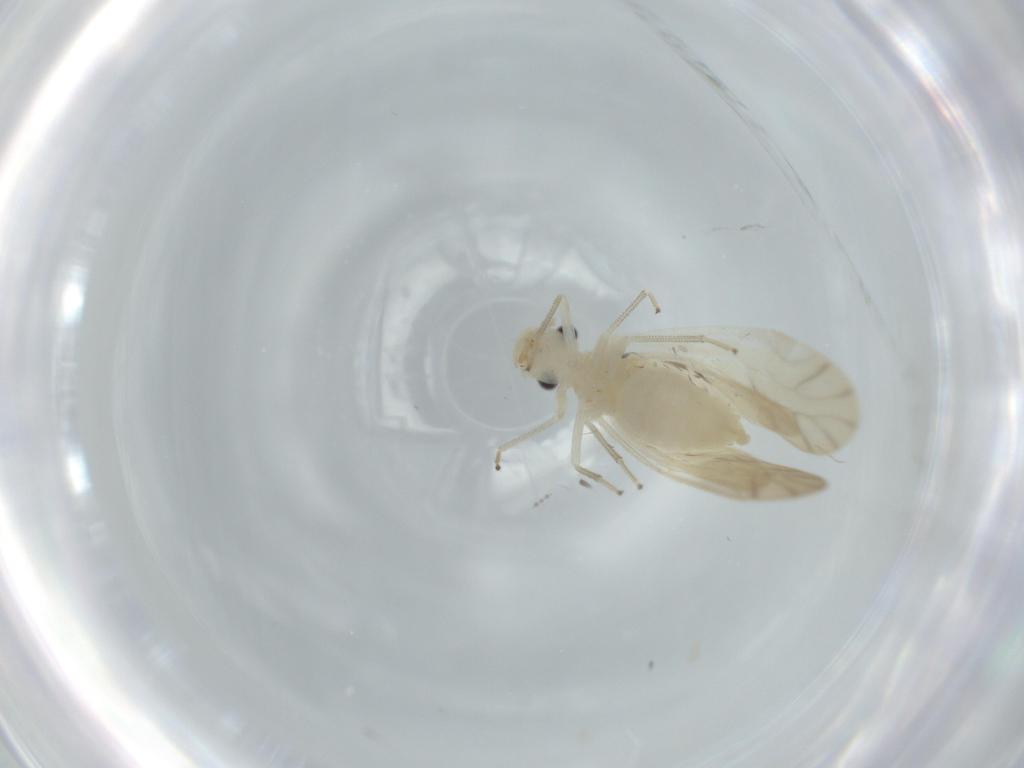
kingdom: Animalia
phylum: Arthropoda
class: Insecta
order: Psocodea
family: Caeciliusidae
